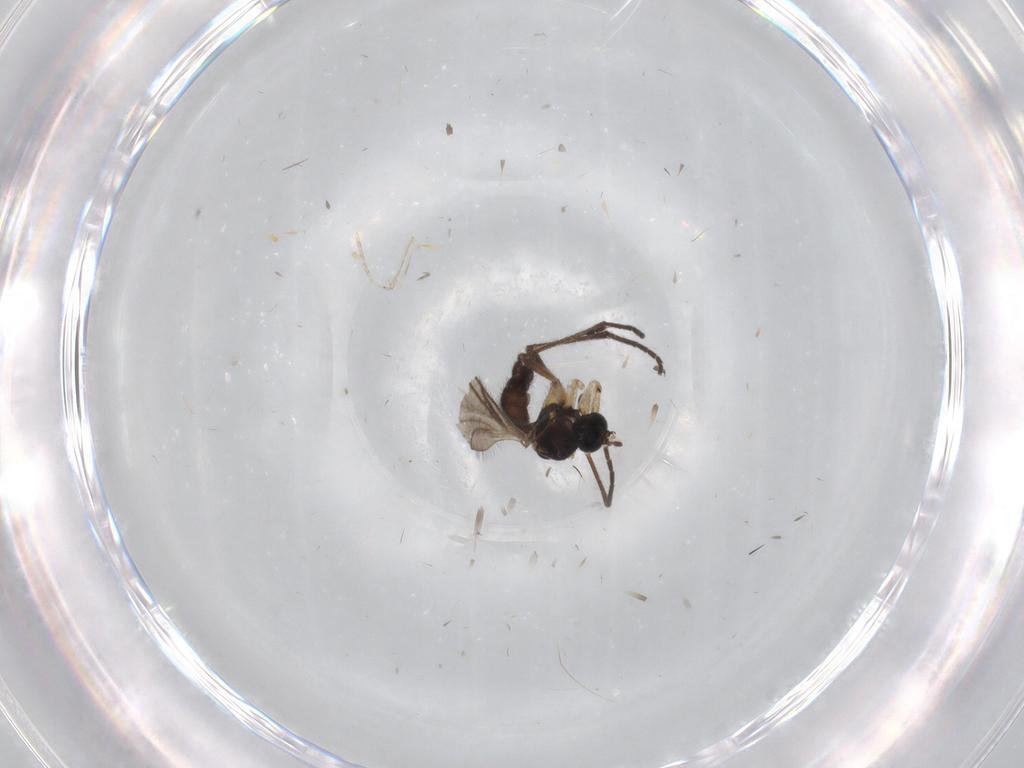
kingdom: Animalia
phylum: Arthropoda
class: Insecta
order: Diptera
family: Sciaridae
